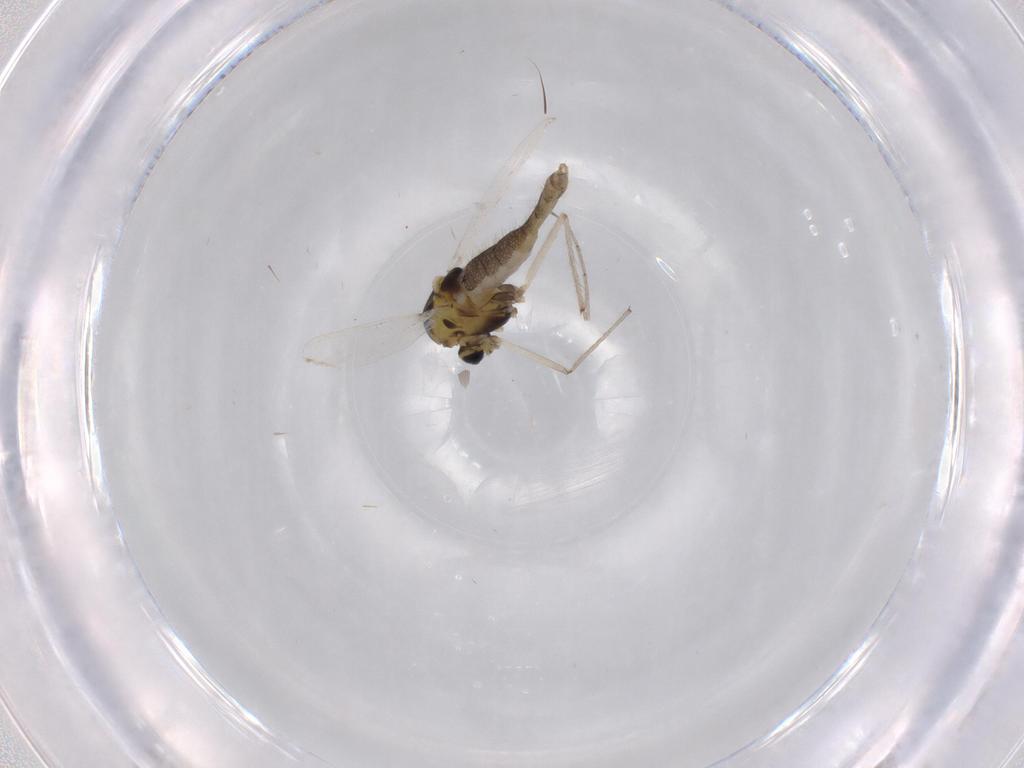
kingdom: Animalia
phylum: Arthropoda
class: Insecta
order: Diptera
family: Chironomidae
